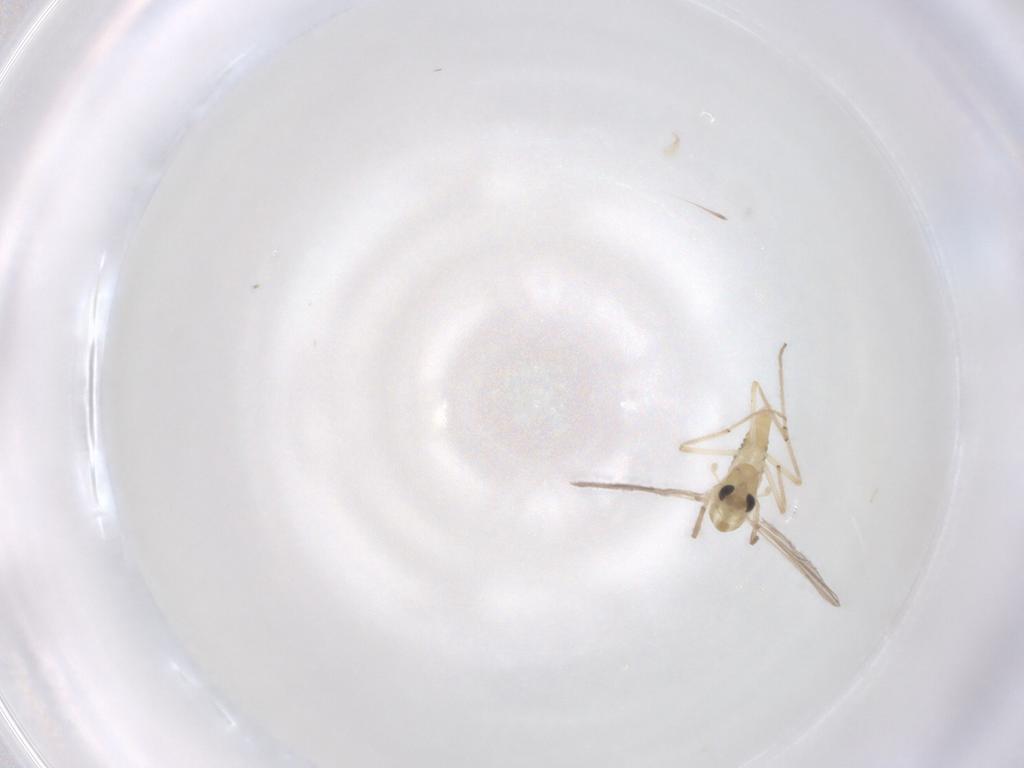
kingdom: Animalia
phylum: Arthropoda
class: Insecta
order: Diptera
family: Chironomidae
